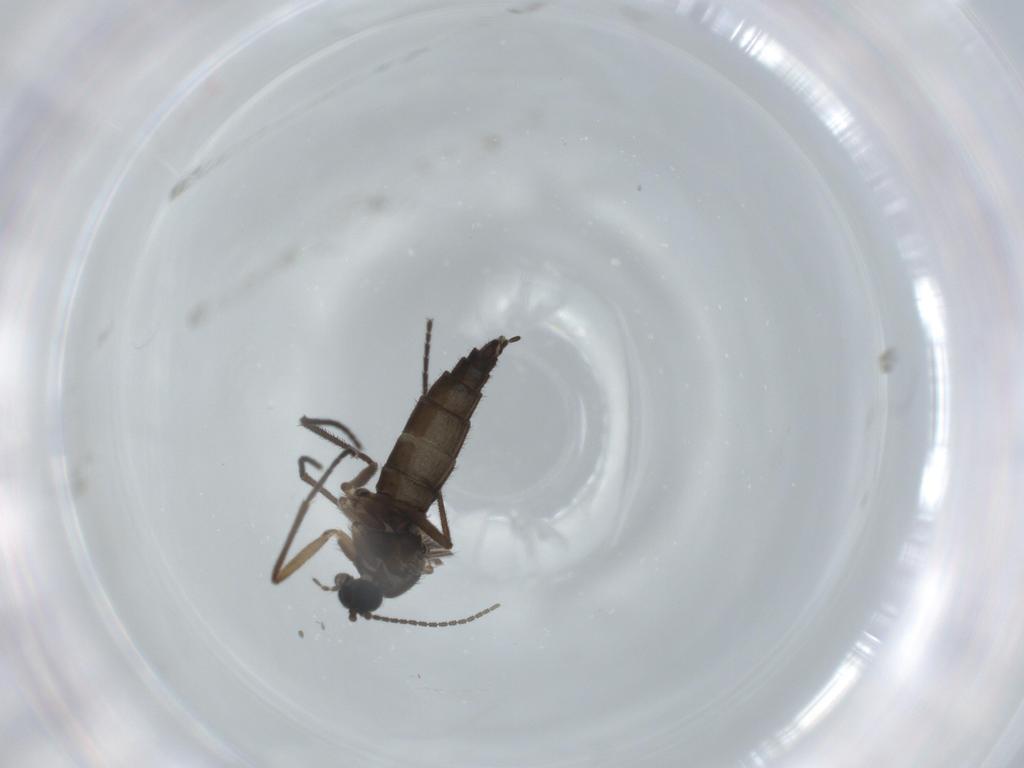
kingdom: Animalia
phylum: Arthropoda
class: Insecta
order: Diptera
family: Sciaridae
